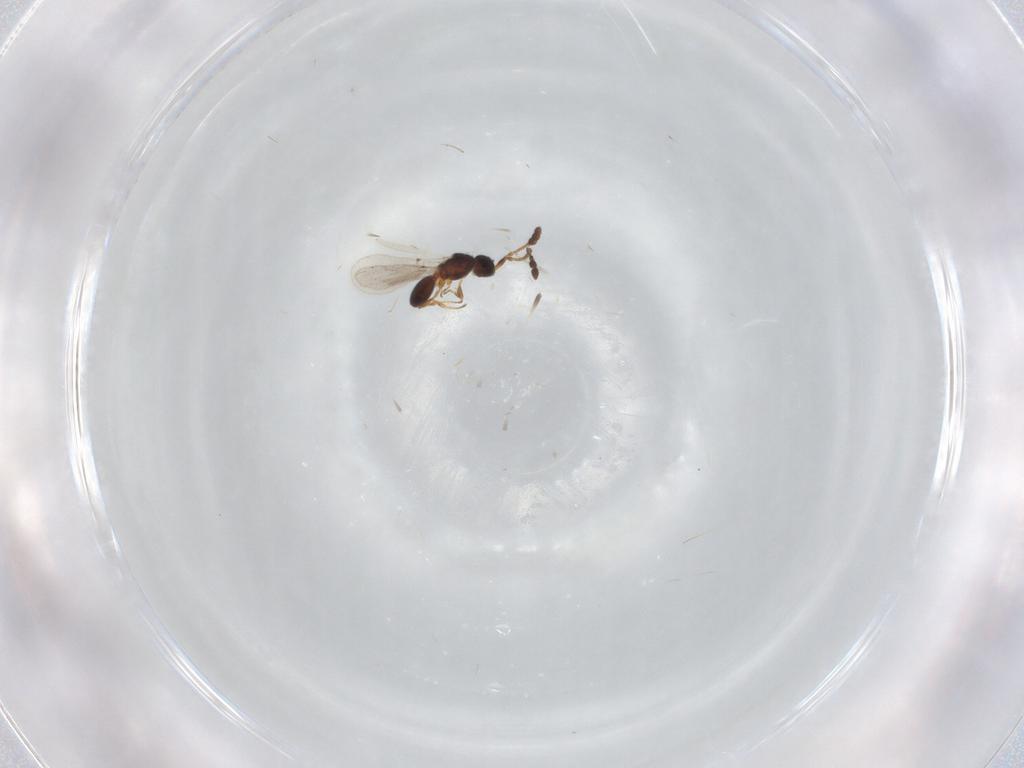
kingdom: Animalia
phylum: Arthropoda
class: Insecta
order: Hymenoptera
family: Diapriidae
